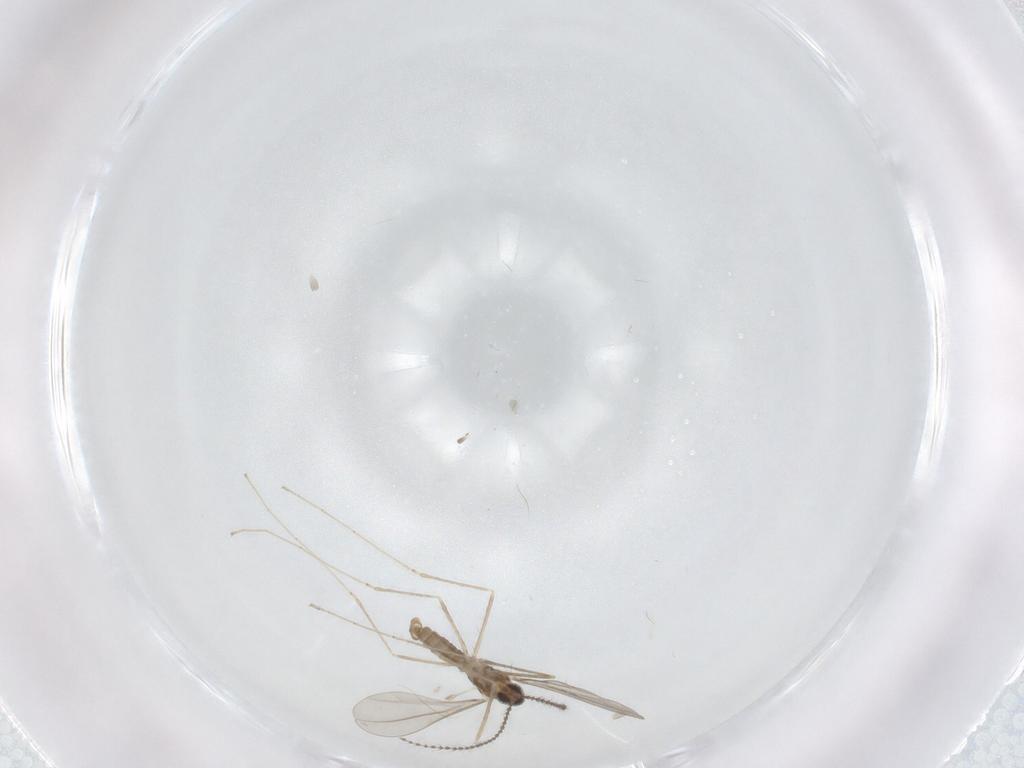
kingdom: Animalia
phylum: Arthropoda
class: Insecta
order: Diptera
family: Cecidomyiidae
